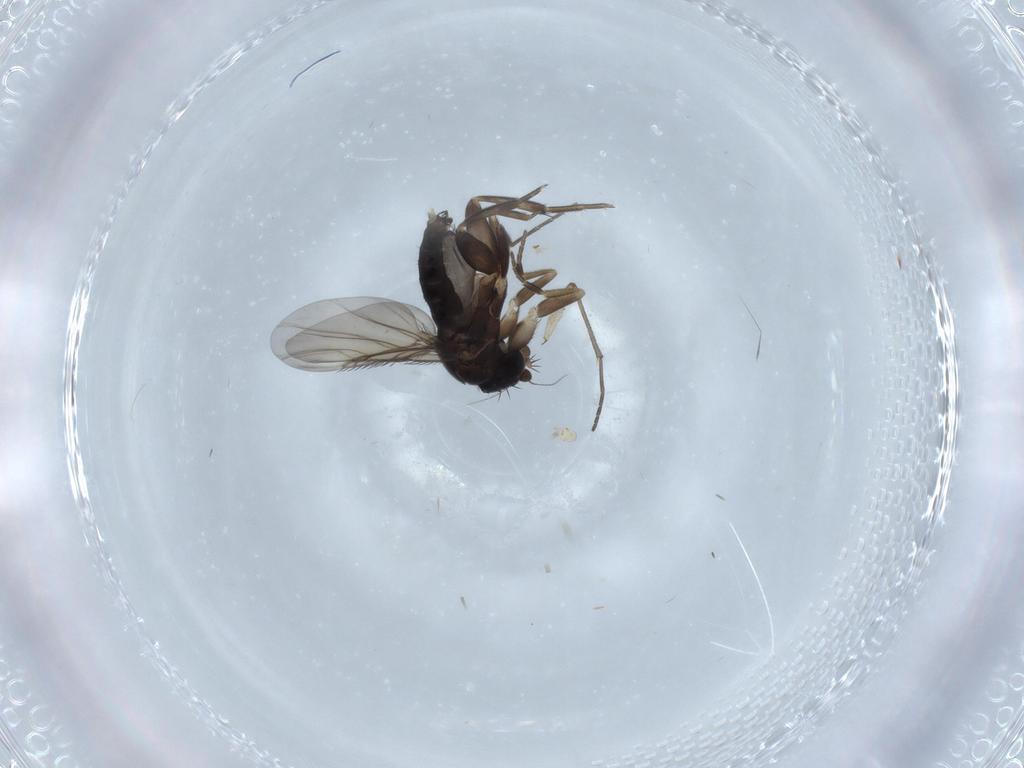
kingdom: Animalia
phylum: Arthropoda
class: Insecta
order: Diptera
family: Phoridae
